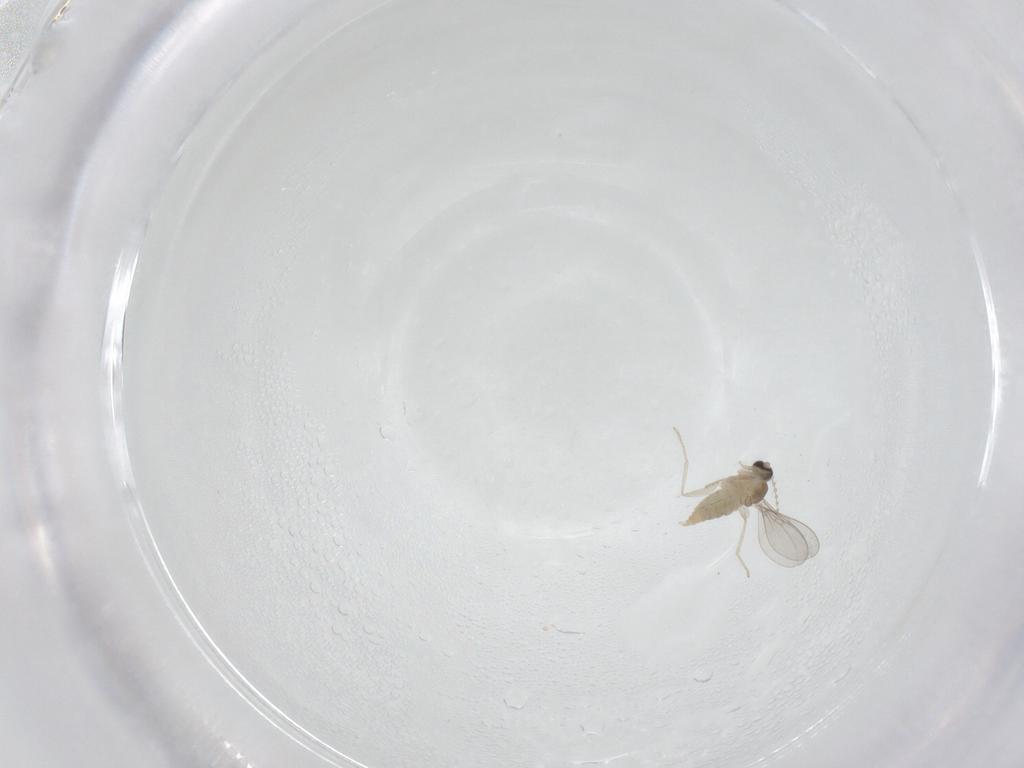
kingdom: Animalia
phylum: Arthropoda
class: Insecta
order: Diptera
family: Cecidomyiidae
